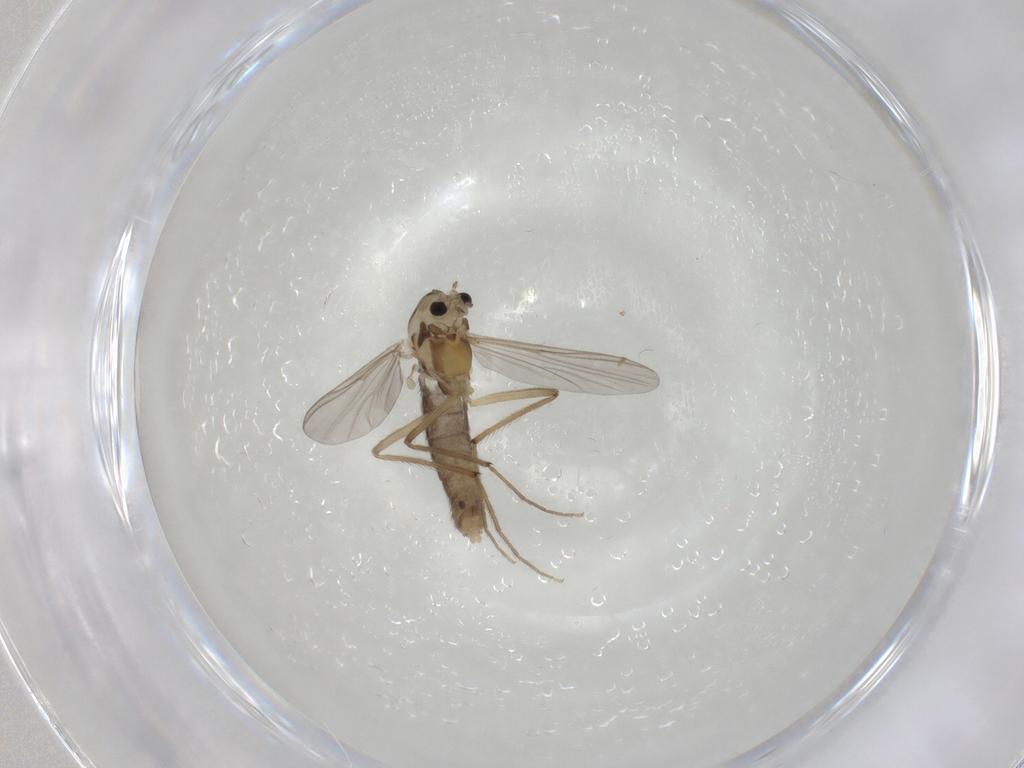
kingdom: Animalia
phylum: Arthropoda
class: Insecta
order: Diptera
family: Chironomidae
